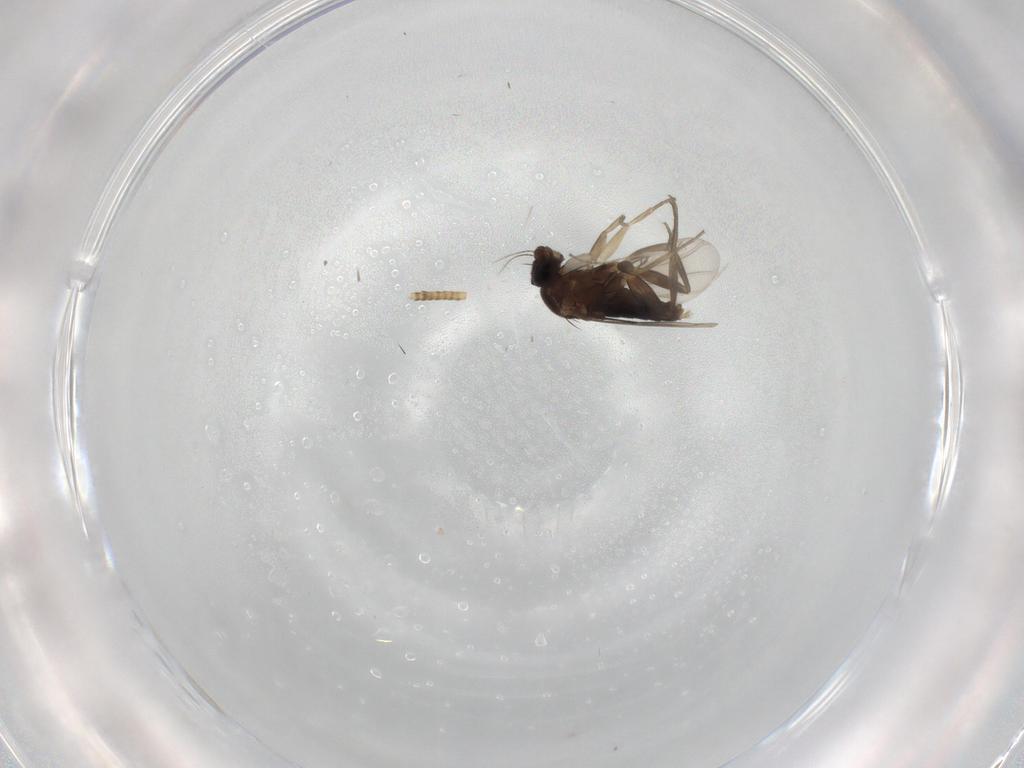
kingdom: Animalia
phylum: Arthropoda
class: Insecta
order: Diptera
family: Phoridae
